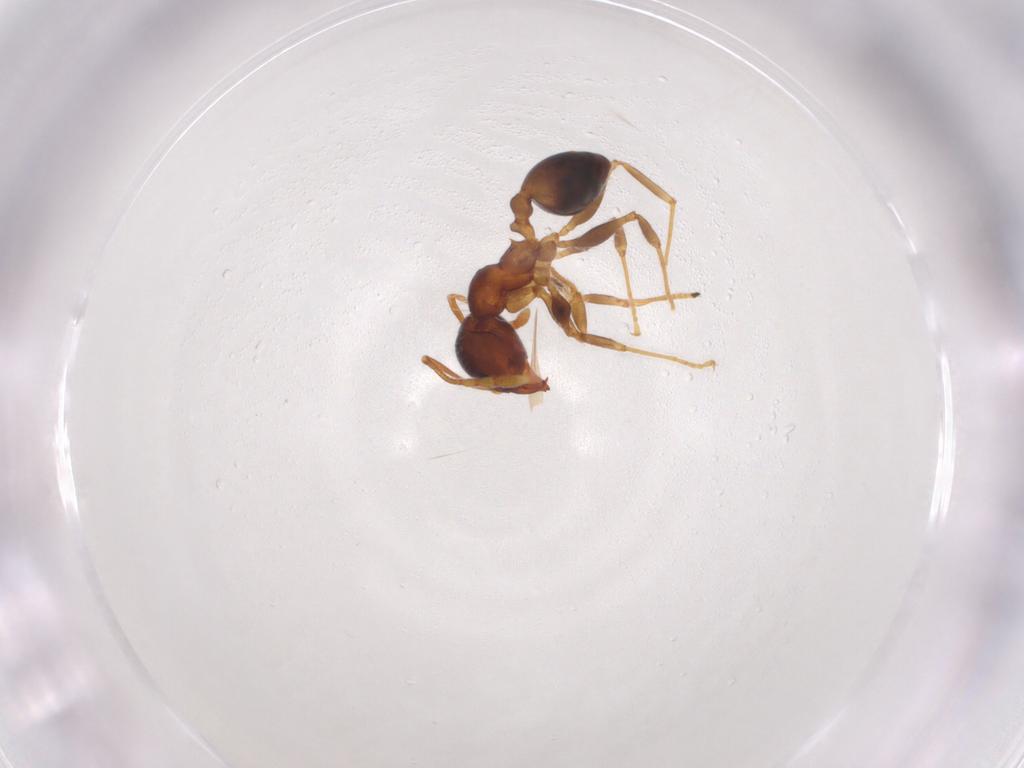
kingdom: Animalia
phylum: Arthropoda
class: Insecta
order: Hymenoptera
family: Formicidae
